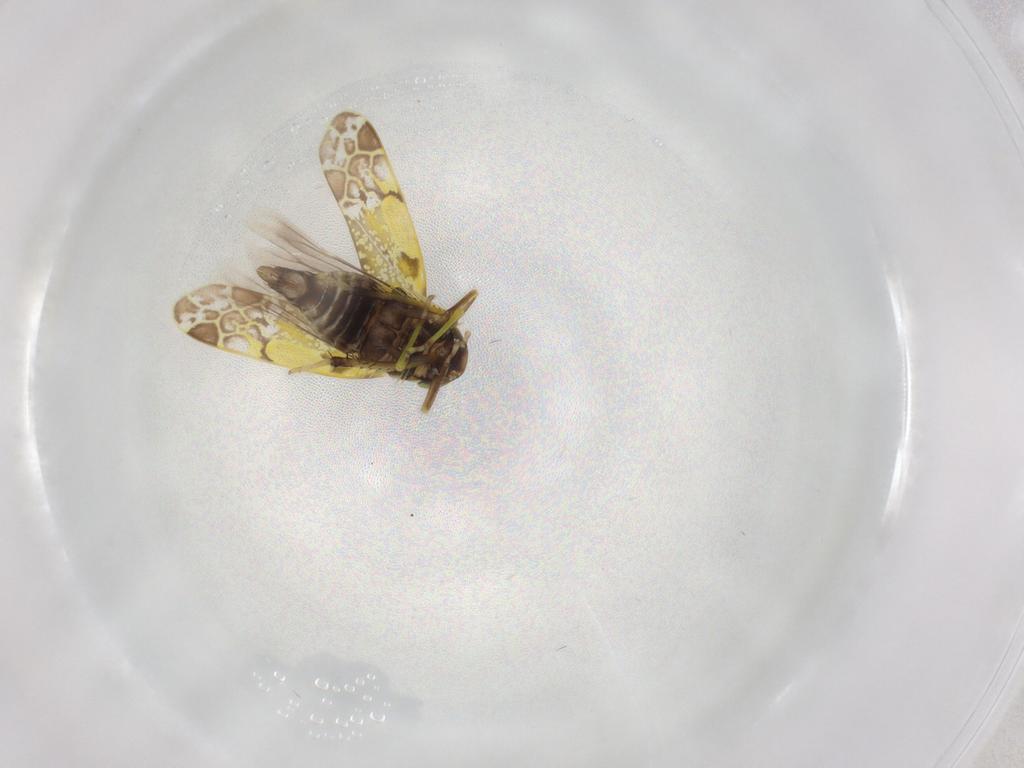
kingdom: Animalia
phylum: Arthropoda
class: Insecta
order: Hemiptera
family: Cicadellidae
